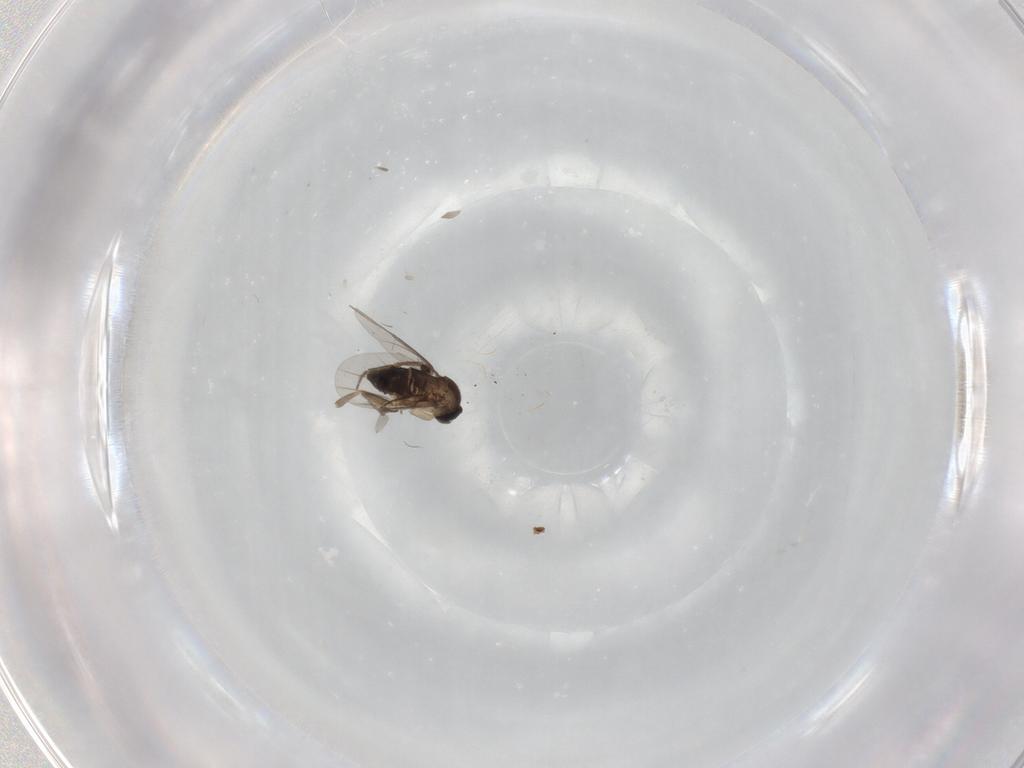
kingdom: Animalia
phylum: Arthropoda
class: Insecta
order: Diptera
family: Phoridae
